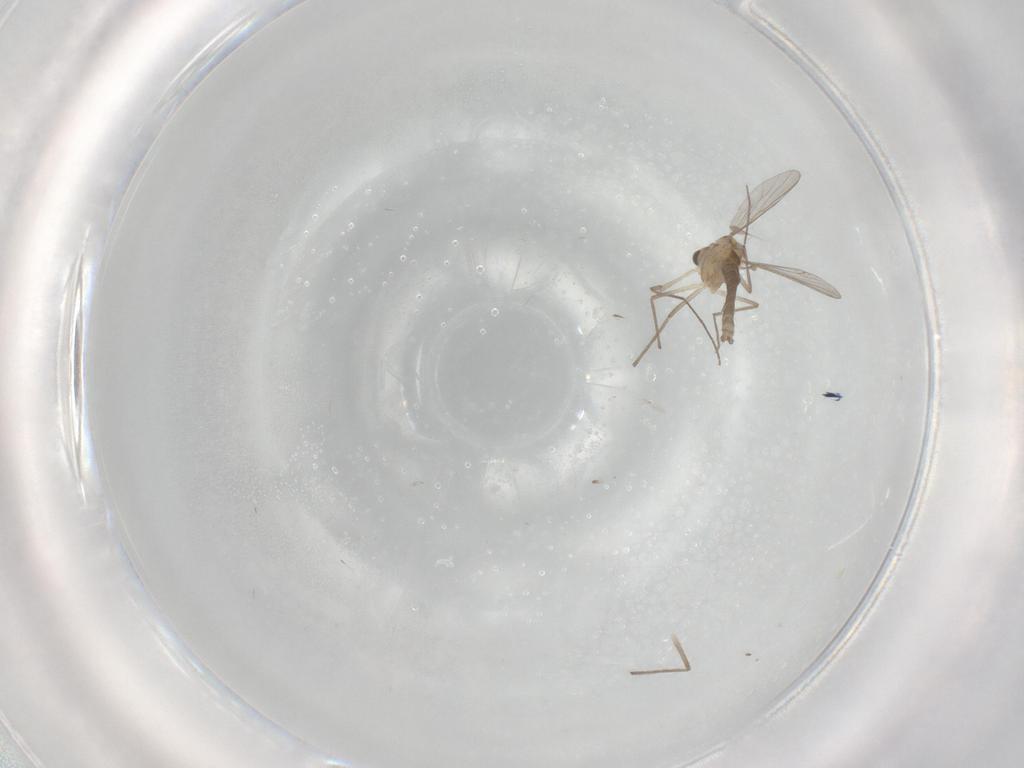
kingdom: Animalia
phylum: Arthropoda
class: Insecta
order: Diptera
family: Chironomidae
